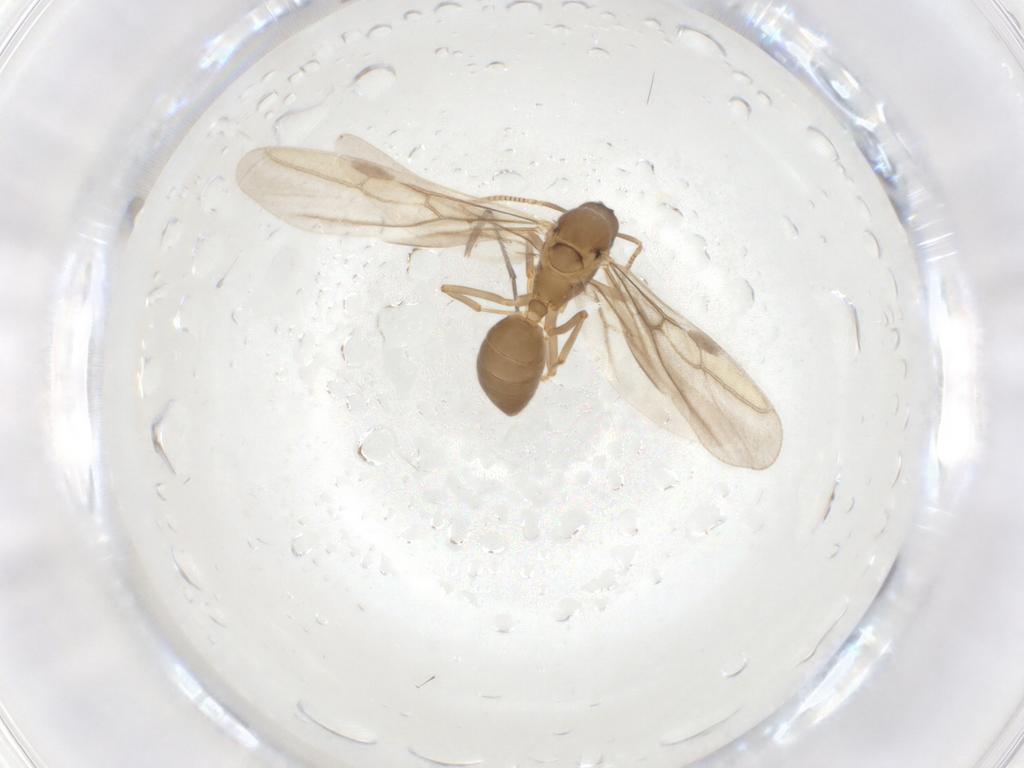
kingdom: Animalia
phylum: Arthropoda
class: Insecta
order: Hymenoptera
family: Formicidae
